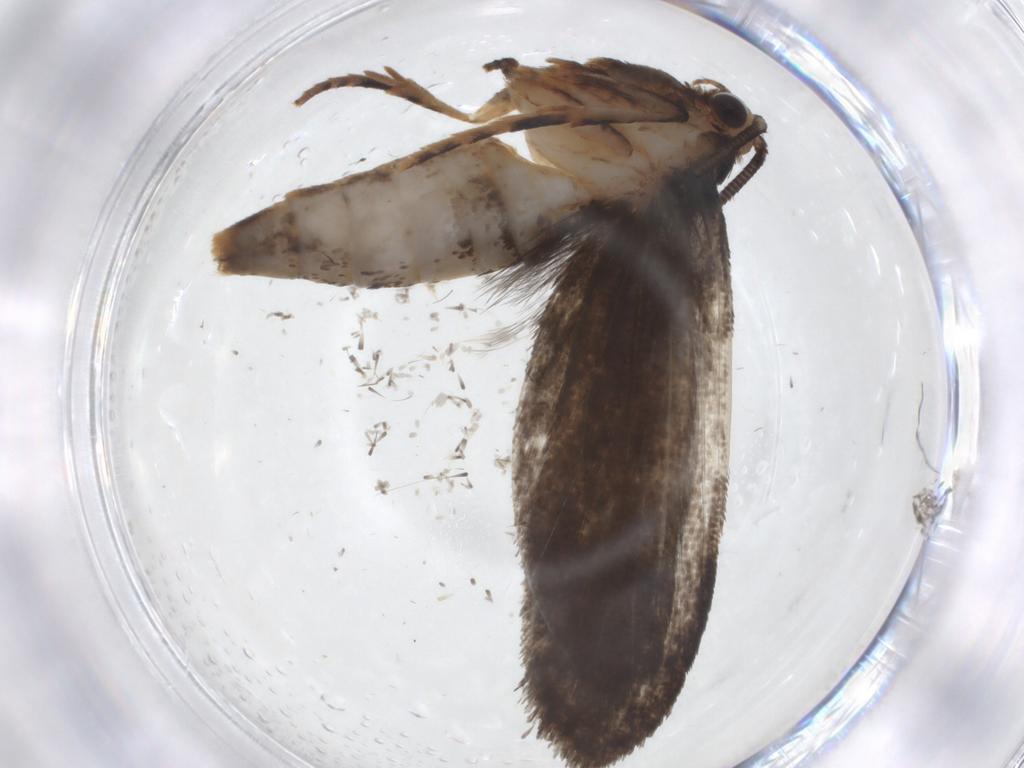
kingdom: Animalia
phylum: Arthropoda
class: Insecta
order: Lepidoptera
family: Tineidae
